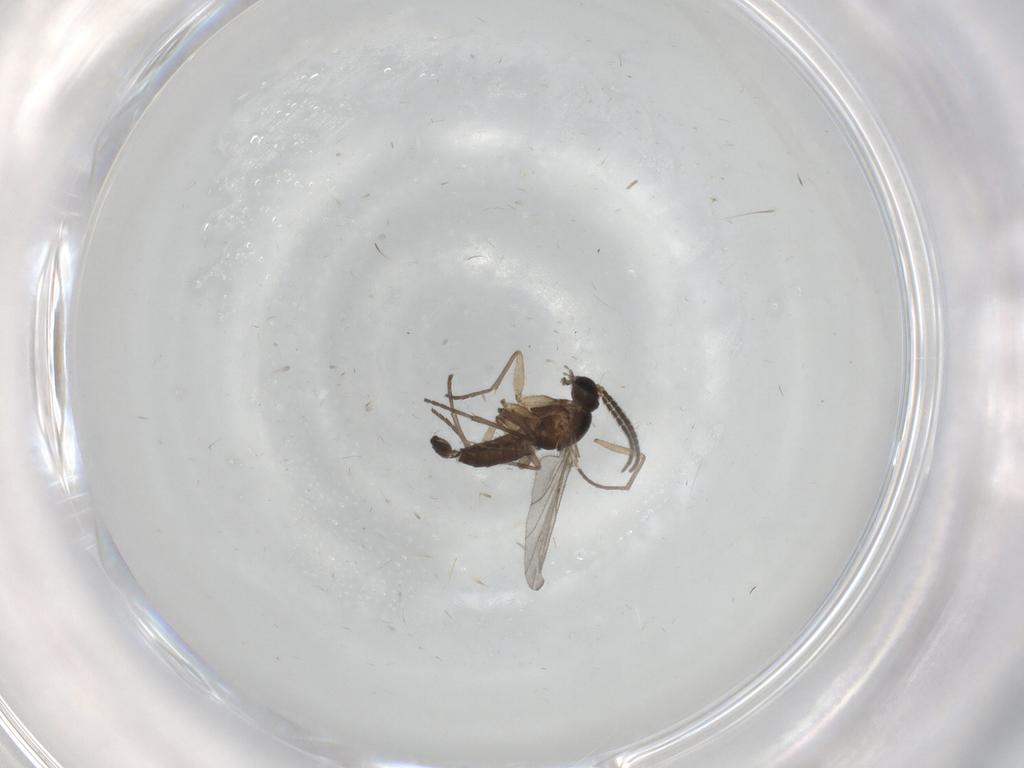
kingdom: Animalia
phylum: Arthropoda
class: Insecta
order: Diptera
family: Sciaridae
